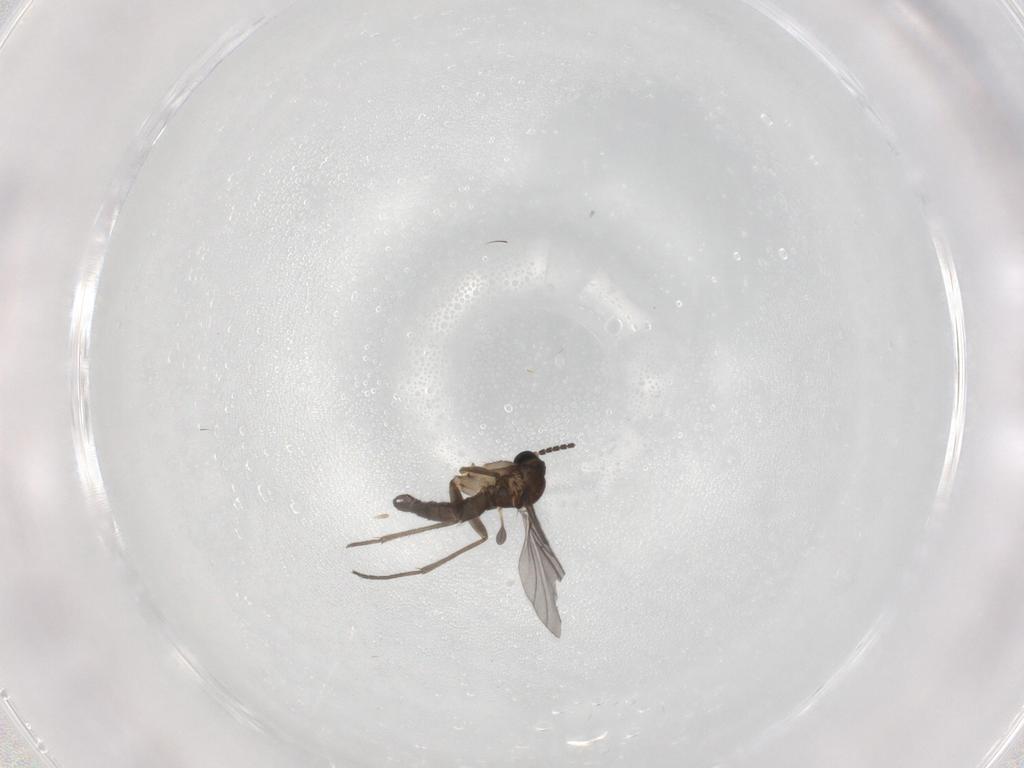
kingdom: Animalia
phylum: Arthropoda
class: Insecta
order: Diptera
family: Sciaridae
